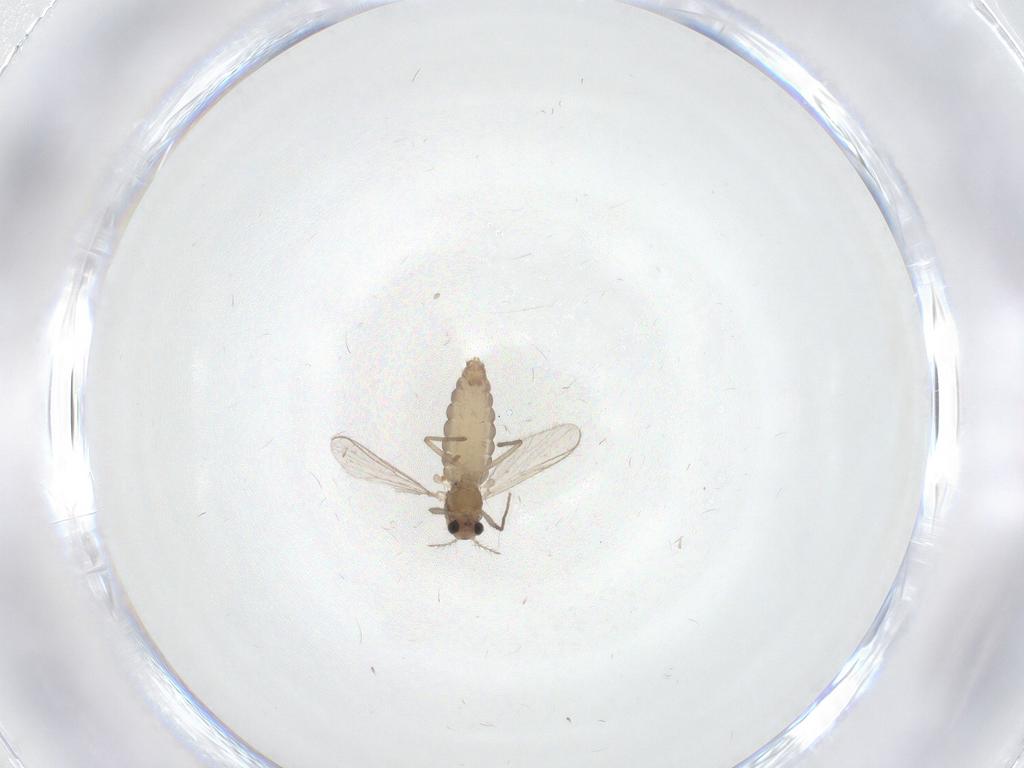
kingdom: Animalia
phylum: Arthropoda
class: Insecta
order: Diptera
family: Chironomidae
